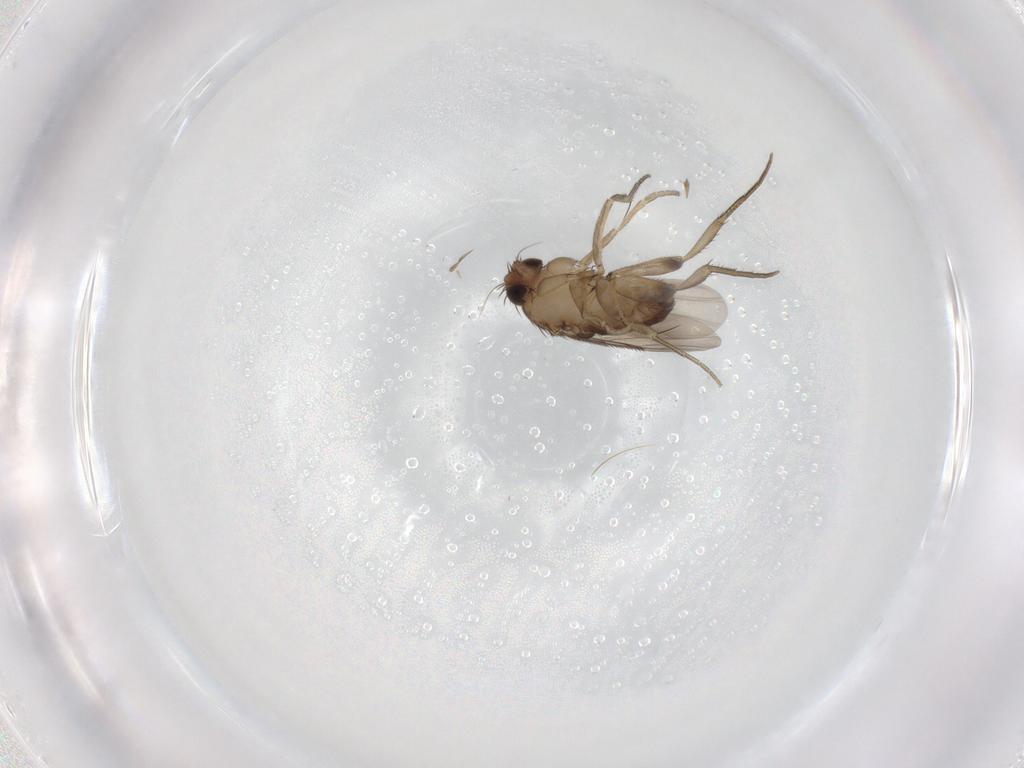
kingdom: Animalia
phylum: Arthropoda
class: Insecta
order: Diptera
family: Phoridae
